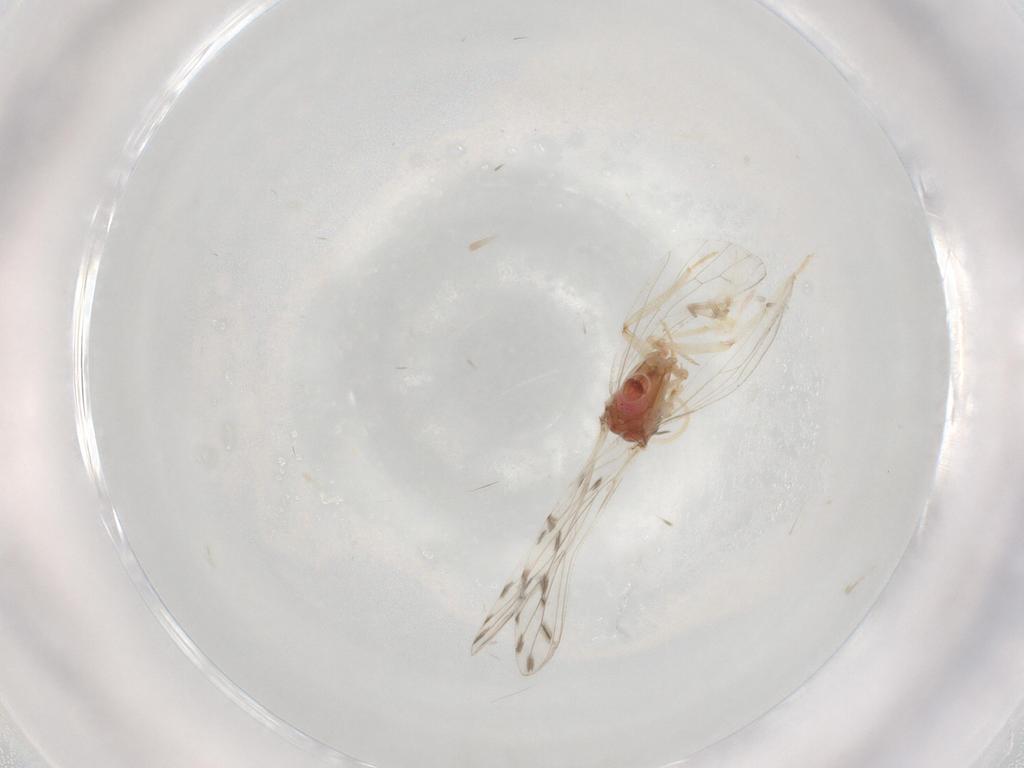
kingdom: Animalia
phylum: Arthropoda
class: Insecta
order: Neuroptera
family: Coniopterygidae
